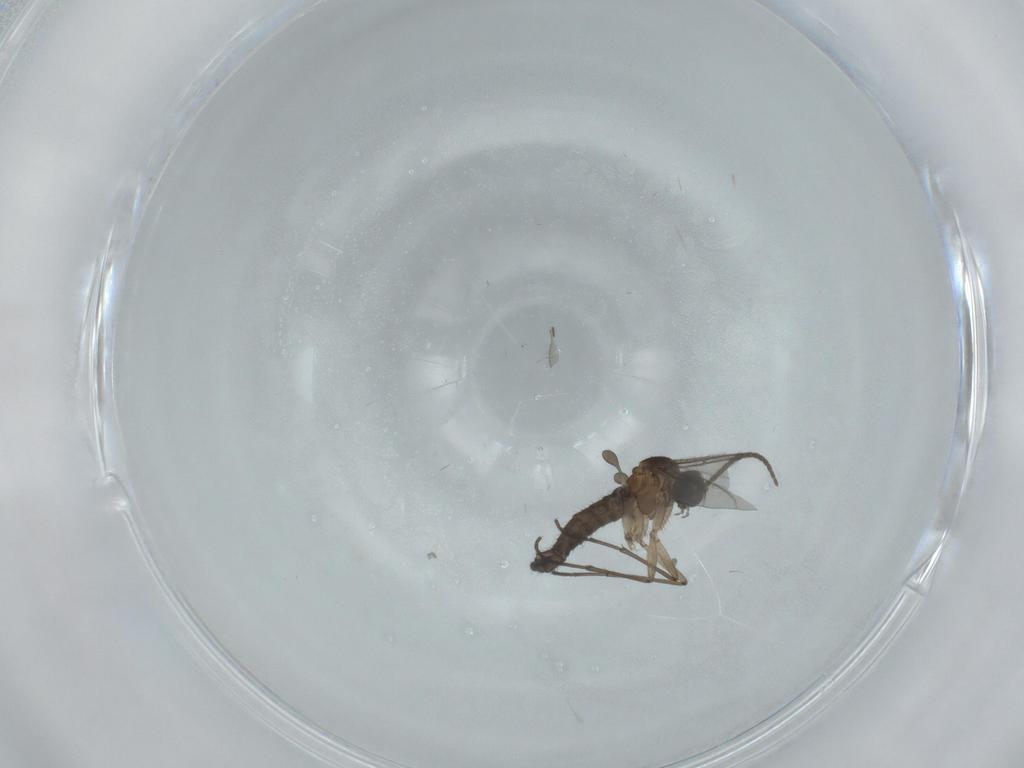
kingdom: Animalia
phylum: Arthropoda
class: Insecta
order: Diptera
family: Sciaridae
